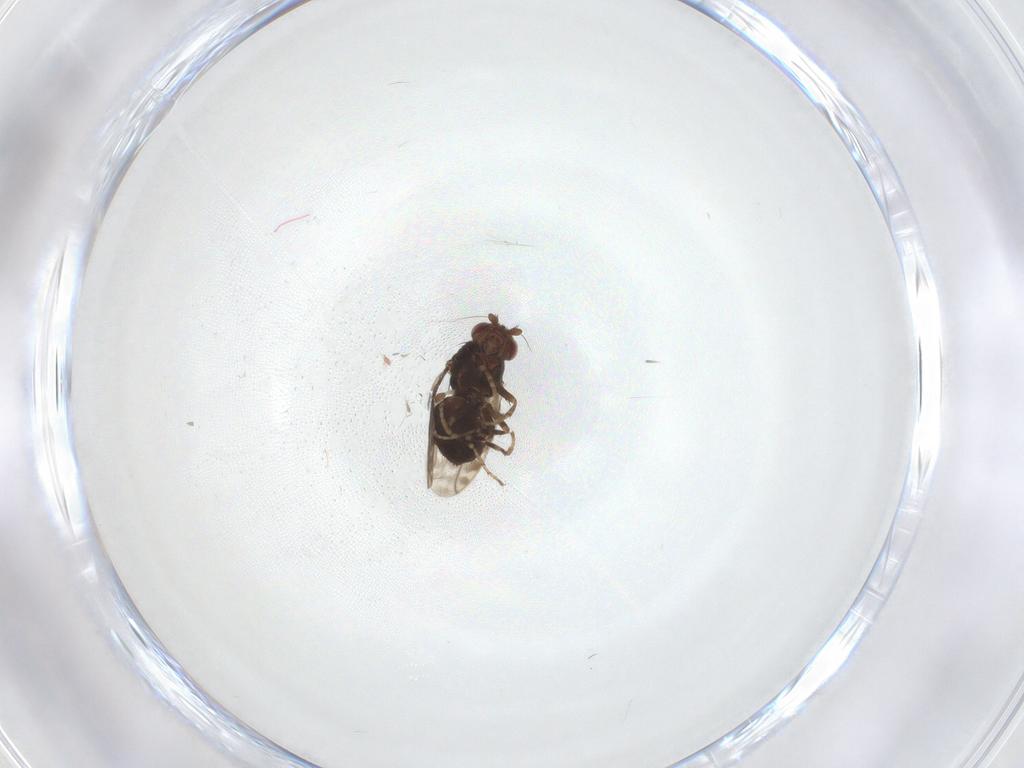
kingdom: Animalia
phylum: Arthropoda
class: Insecta
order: Diptera
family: Sphaeroceridae
